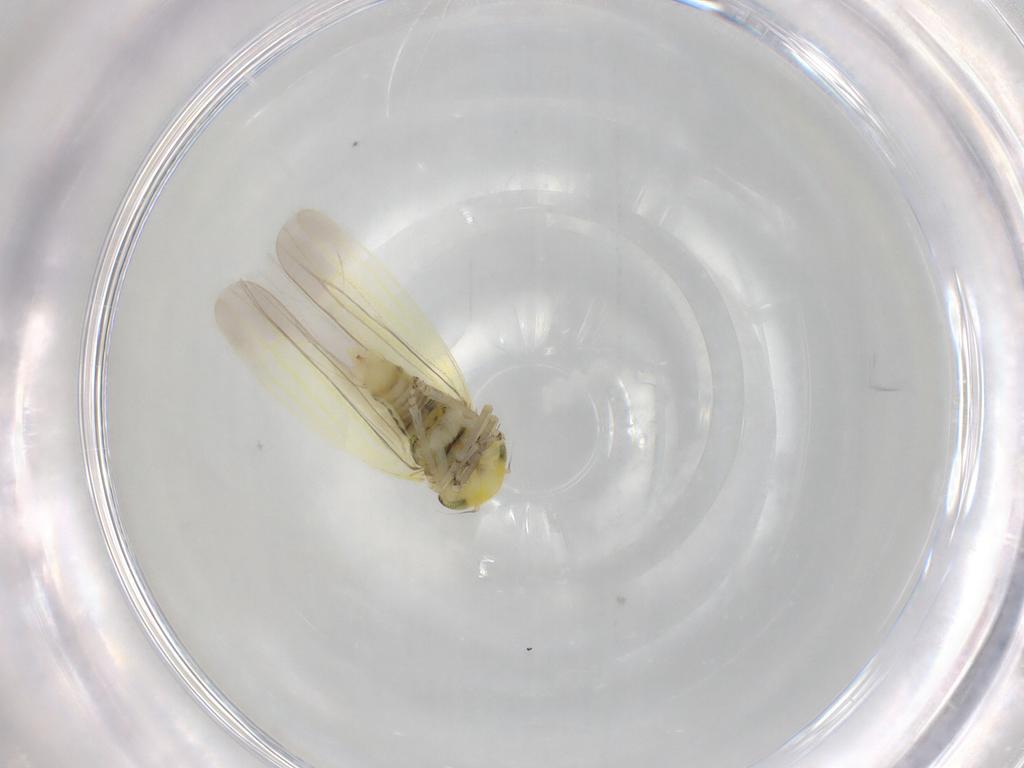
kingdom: Animalia
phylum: Arthropoda
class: Insecta
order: Hemiptera
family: Cicadellidae
